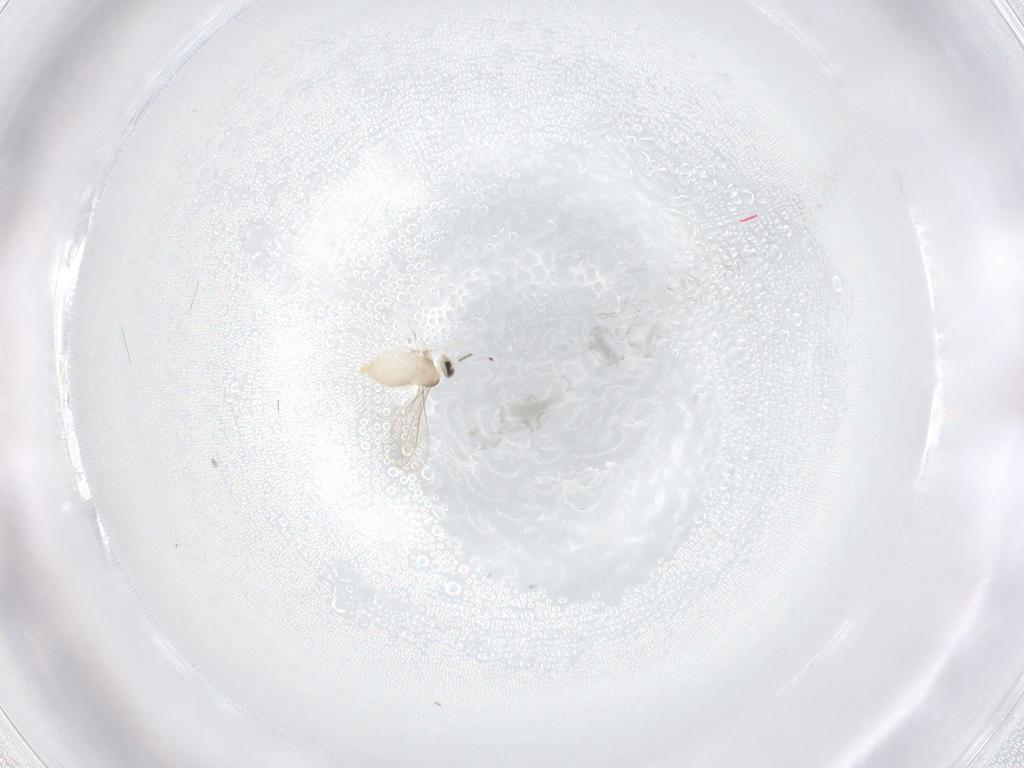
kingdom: Animalia
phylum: Arthropoda
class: Insecta
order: Diptera
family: Cecidomyiidae
